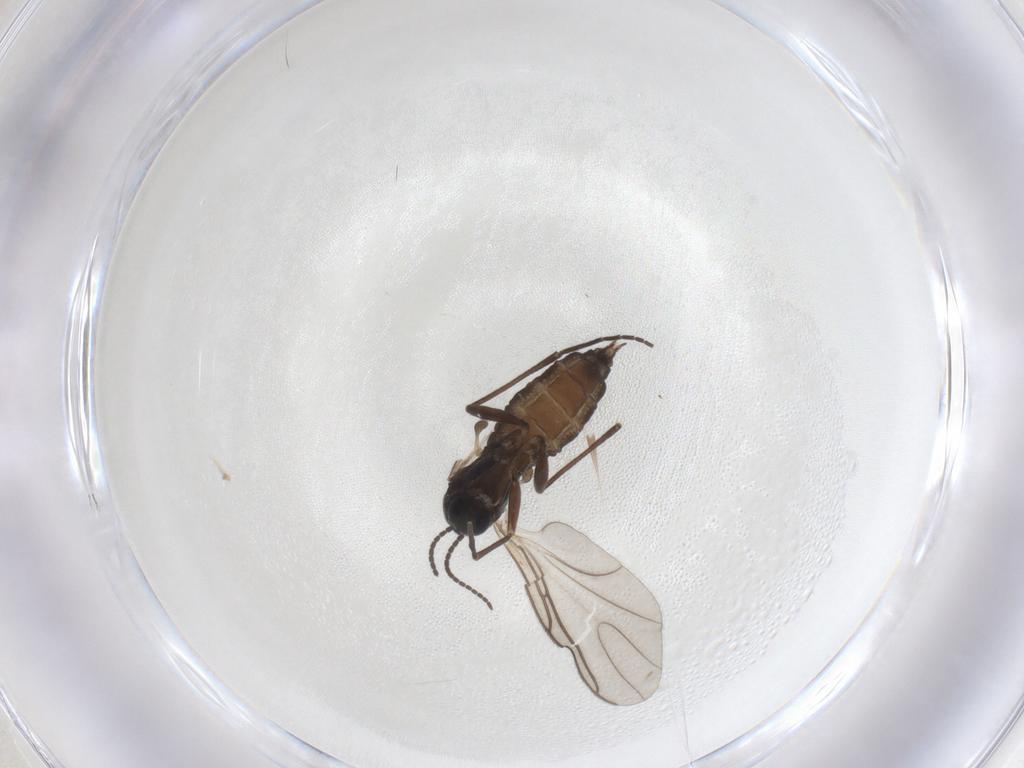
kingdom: Animalia
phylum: Arthropoda
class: Insecta
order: Diptera
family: Sciaridae
